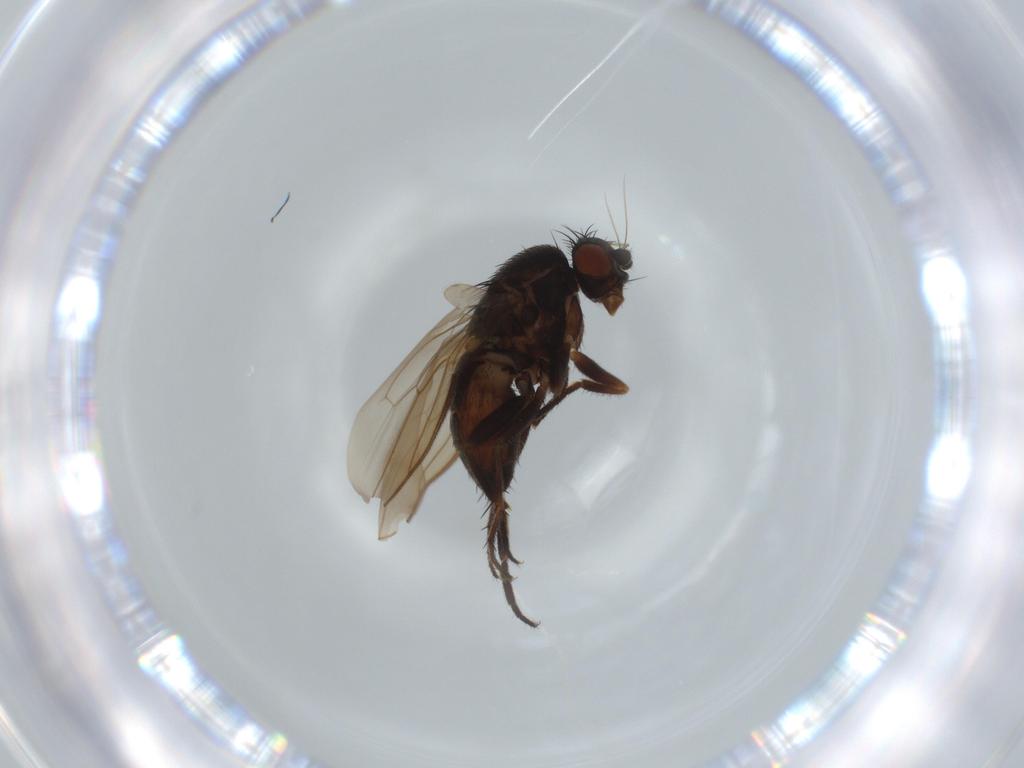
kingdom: Animalia
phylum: Arthropoda
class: Insecta
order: Diptera
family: Sphaeroceridae
